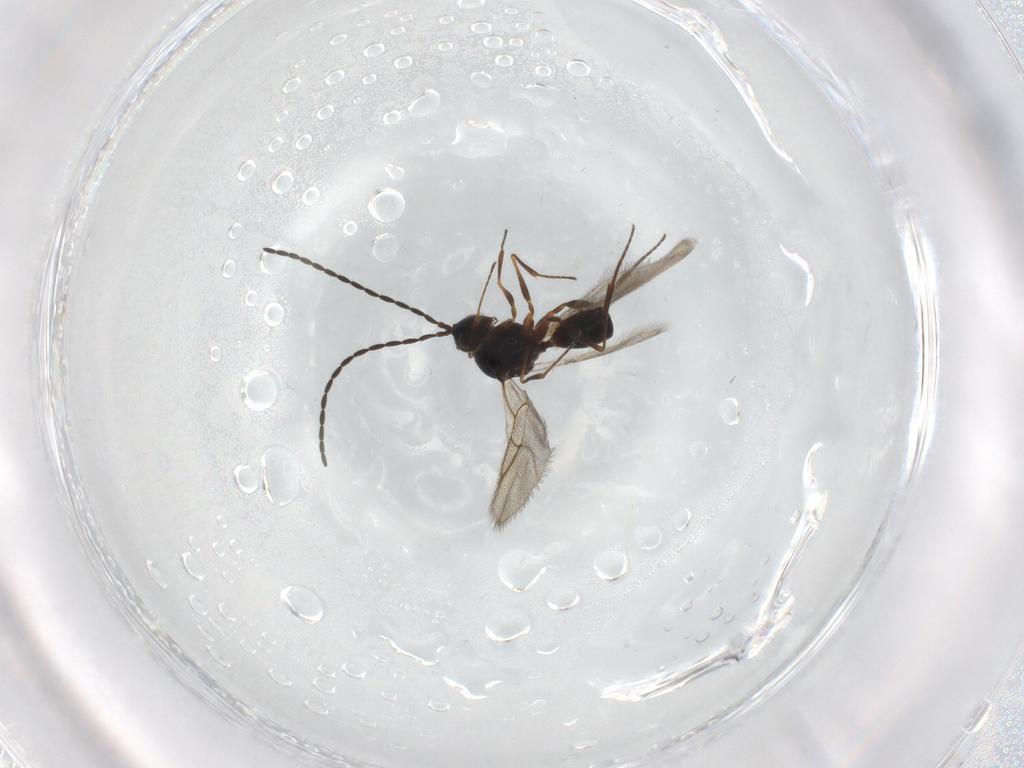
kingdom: Animalia
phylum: Arthropoda
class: Insecta
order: Hymenoptera
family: Figitidae
